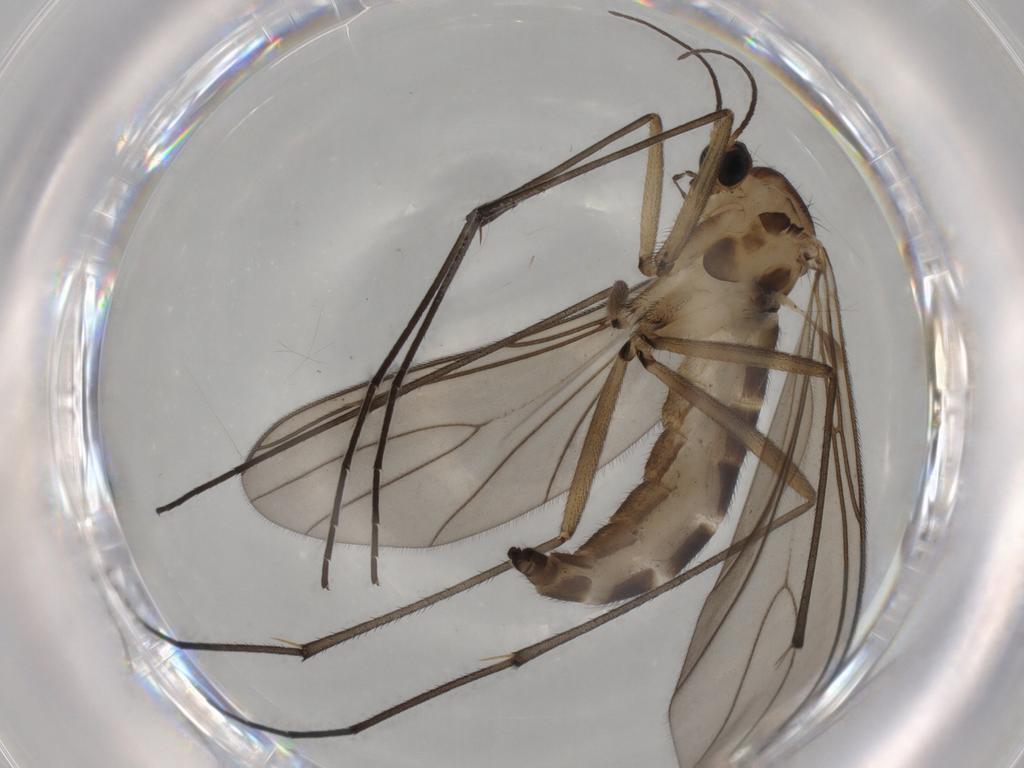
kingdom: Animalia
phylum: Arthropoda
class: Insecta
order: Diptera
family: Sciaridae
